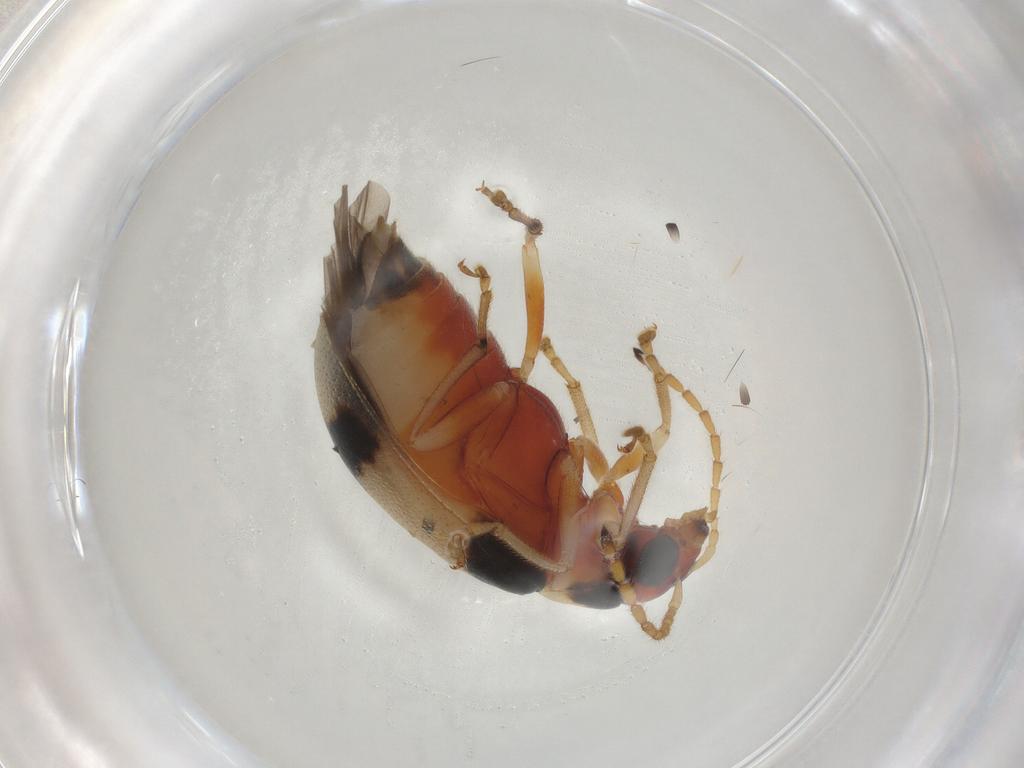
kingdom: Animalia
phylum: Arthropoda
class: Insecta
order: Coleoptera
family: Chrysomelidae
